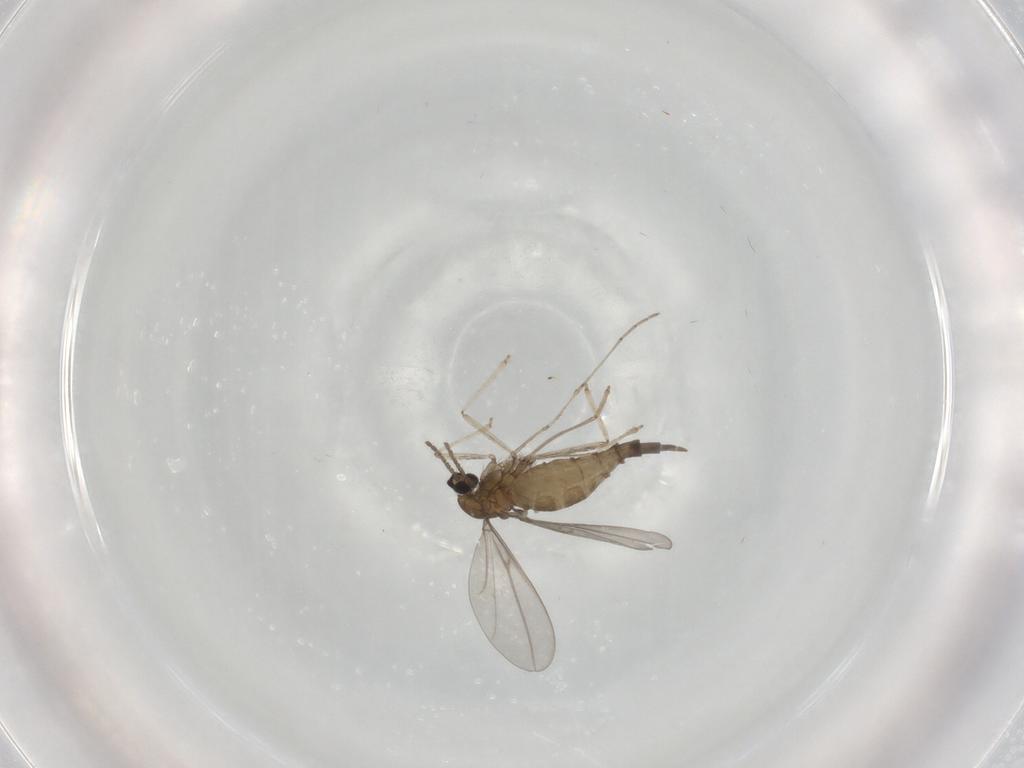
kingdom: Animalia
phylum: Arthropoda
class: Insecta
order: Diptera
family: Cecidomyiidae
